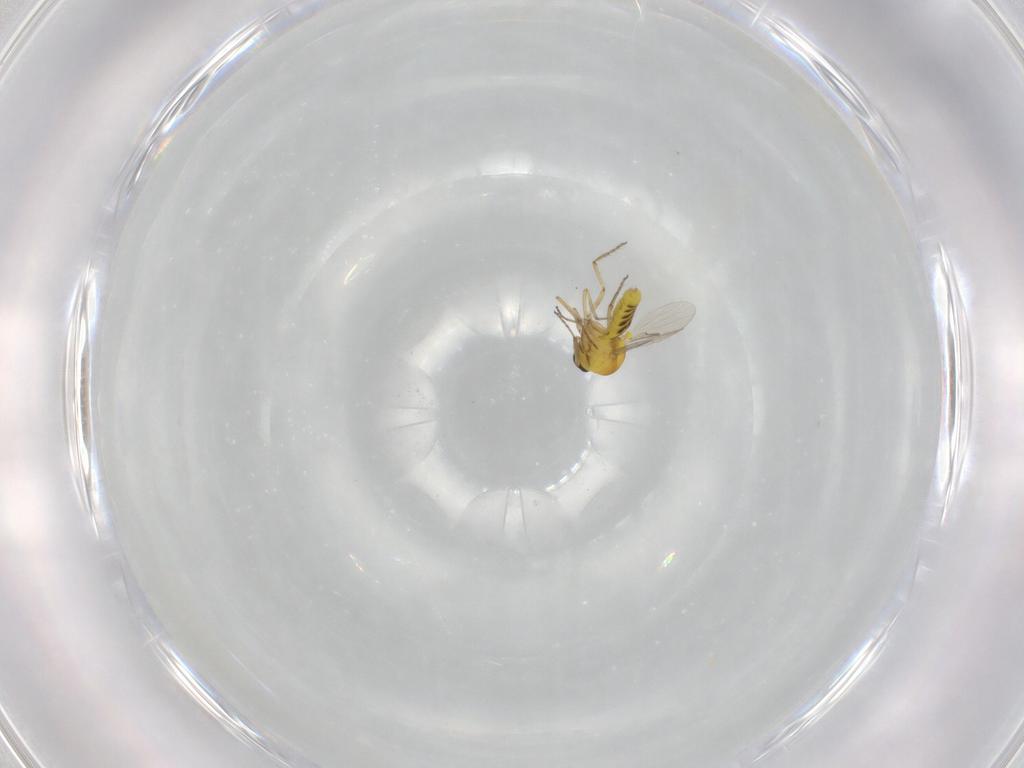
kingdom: Animalia
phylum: Arthropoda
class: Insecta
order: Diptera
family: Ceratopogonidae
